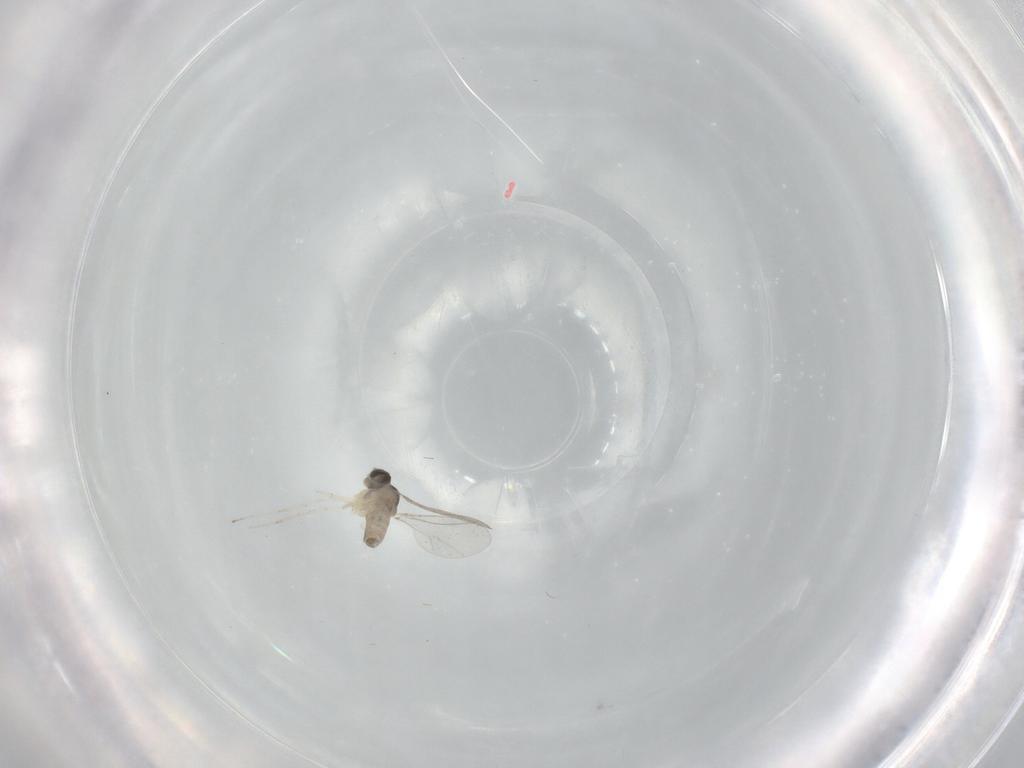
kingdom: Animalia
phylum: Arthropoda
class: Insecta
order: Diptera
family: Cecidomyiidae
